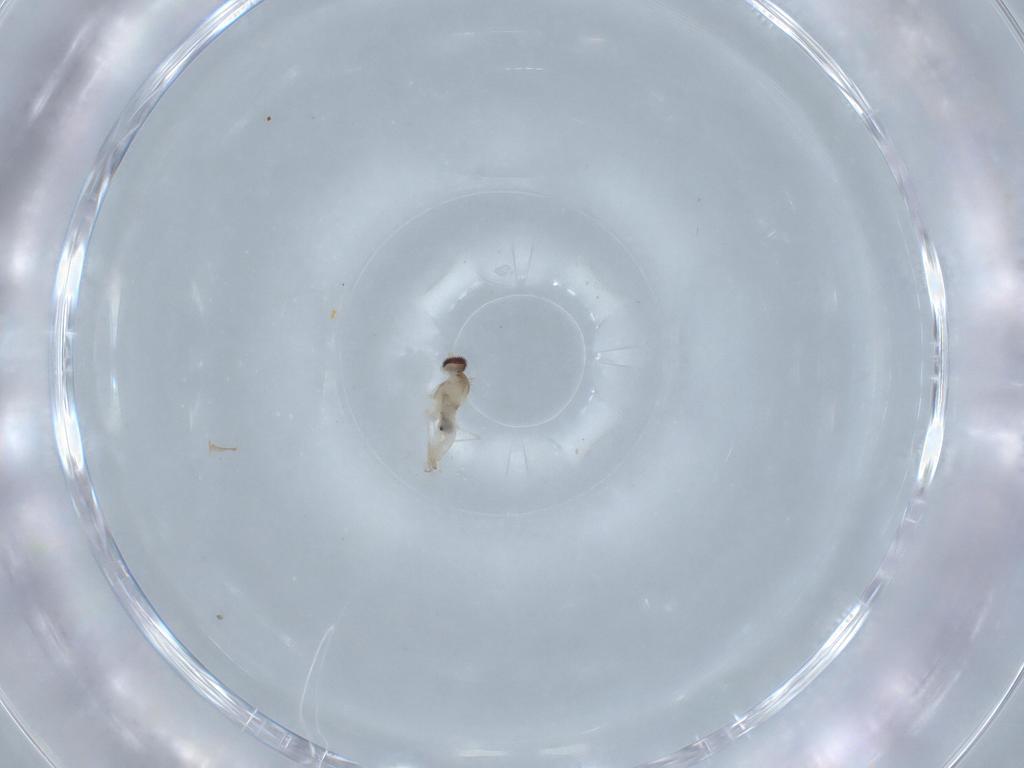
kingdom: Animalia
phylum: Arthropoda
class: Insecta
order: Diptera
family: Cecidomyiidae
